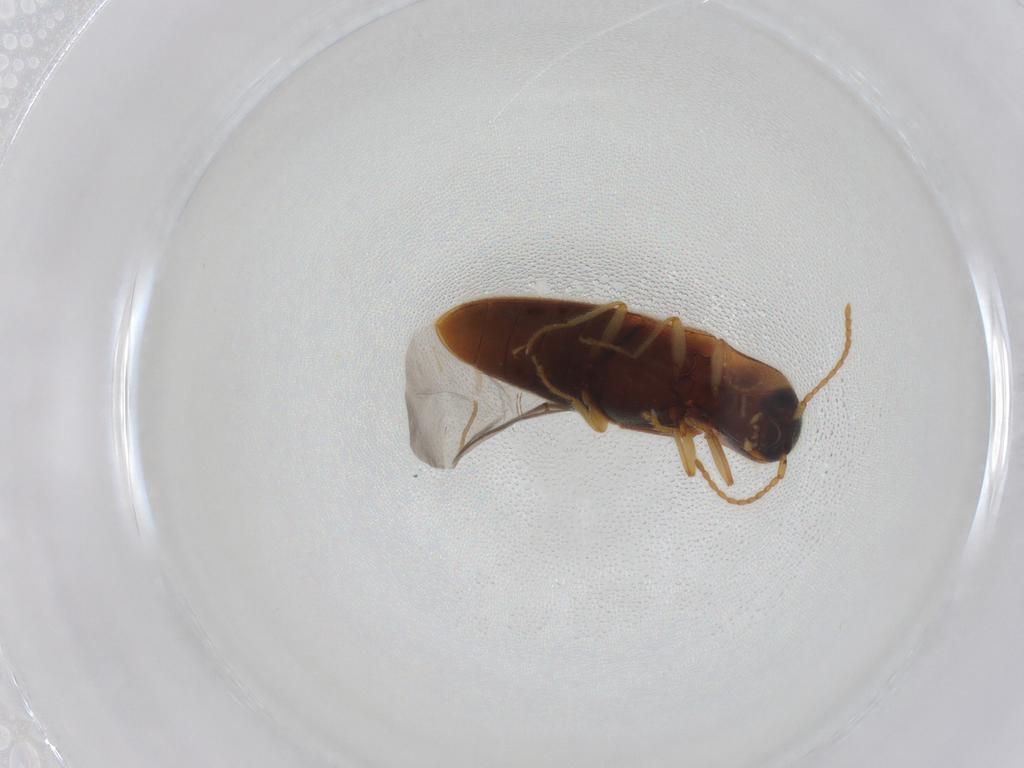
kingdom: Animalia
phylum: Arthropoda
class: Insecta
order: Coleoptera
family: Elateridae
